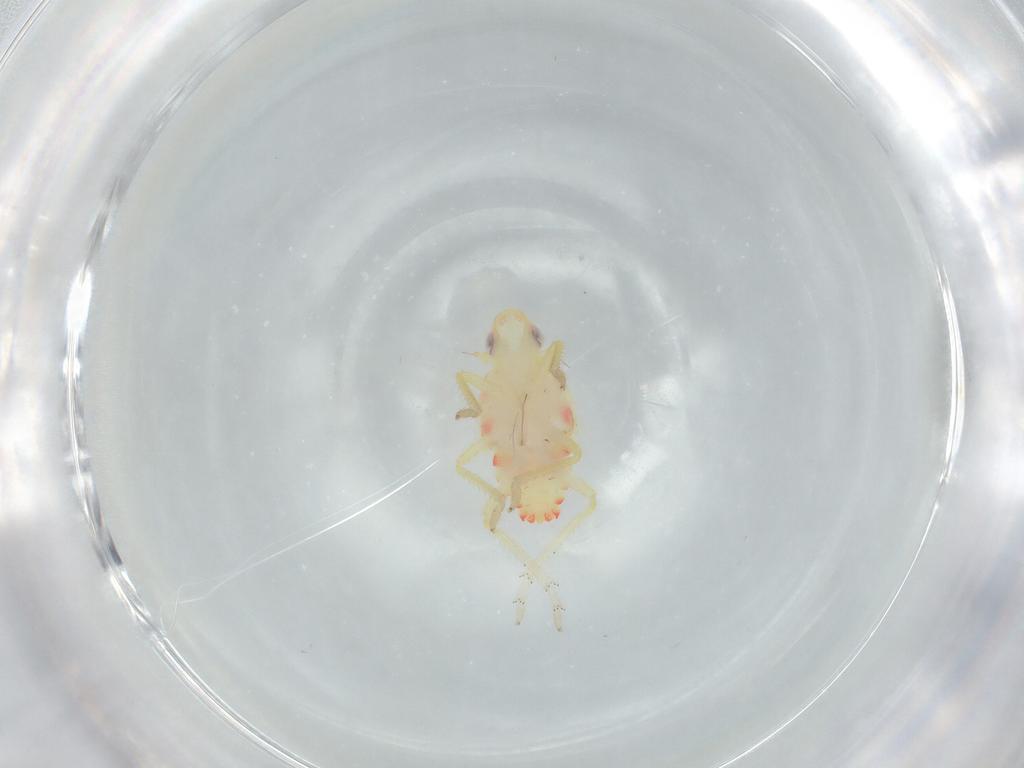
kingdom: Animalia
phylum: Arthropoda
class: Insecta
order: Hemiptera
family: Tropiduchidae
